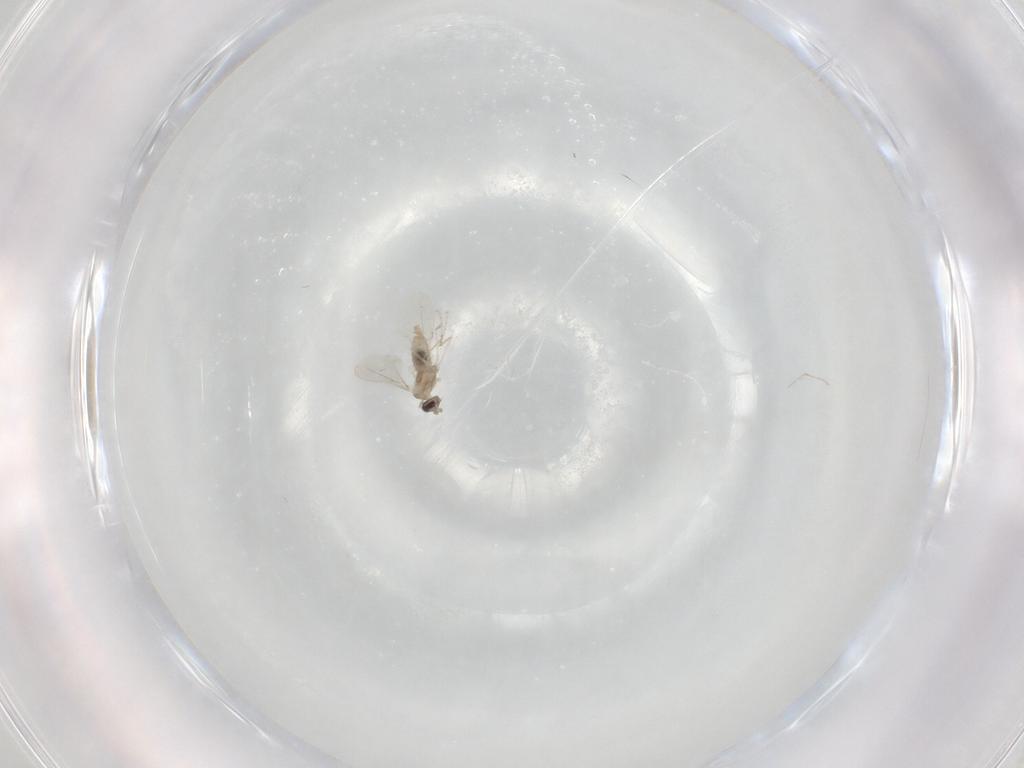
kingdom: Animalia
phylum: Arthropoda
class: Insecta
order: Diptera
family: Cecidomyiidae
